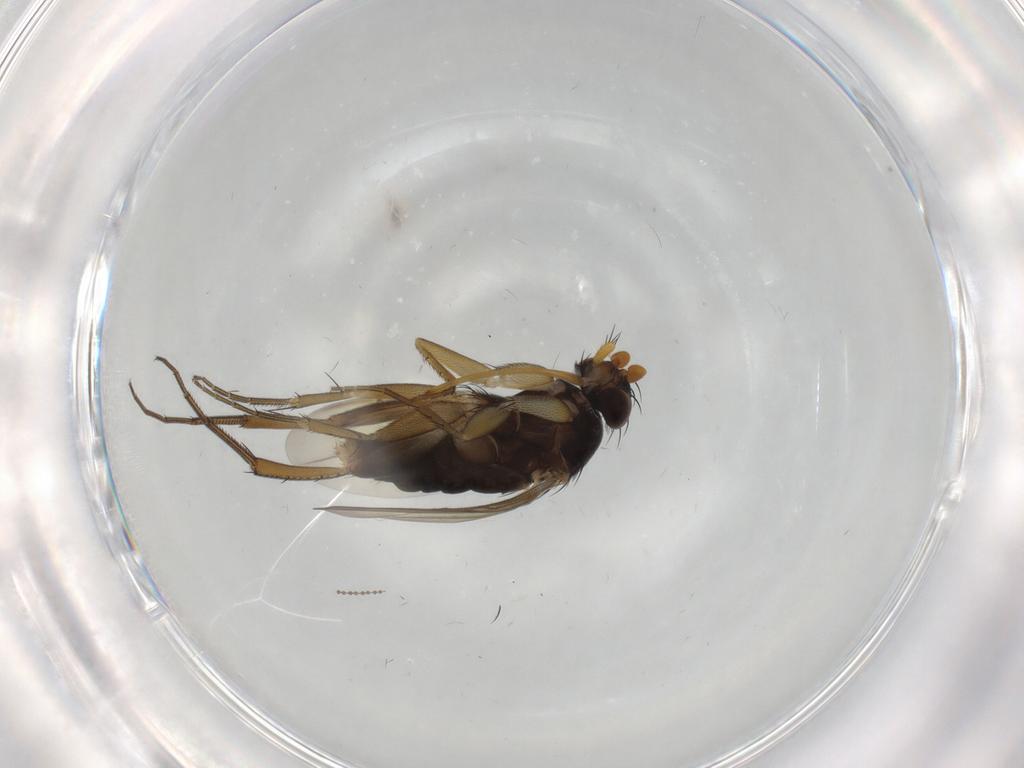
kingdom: Animalia
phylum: Arthropoda
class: Insecta
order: Diptera
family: Phoridae
